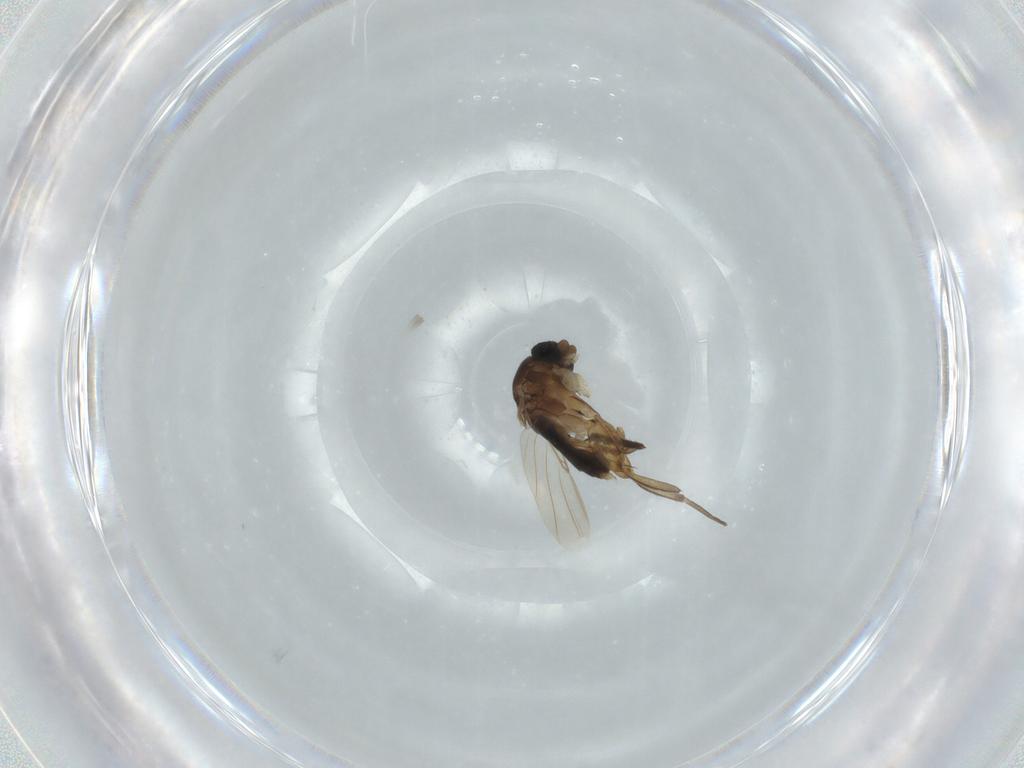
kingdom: Animalia
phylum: Arthropoda
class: Insecta
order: Diptera
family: Phoridae
